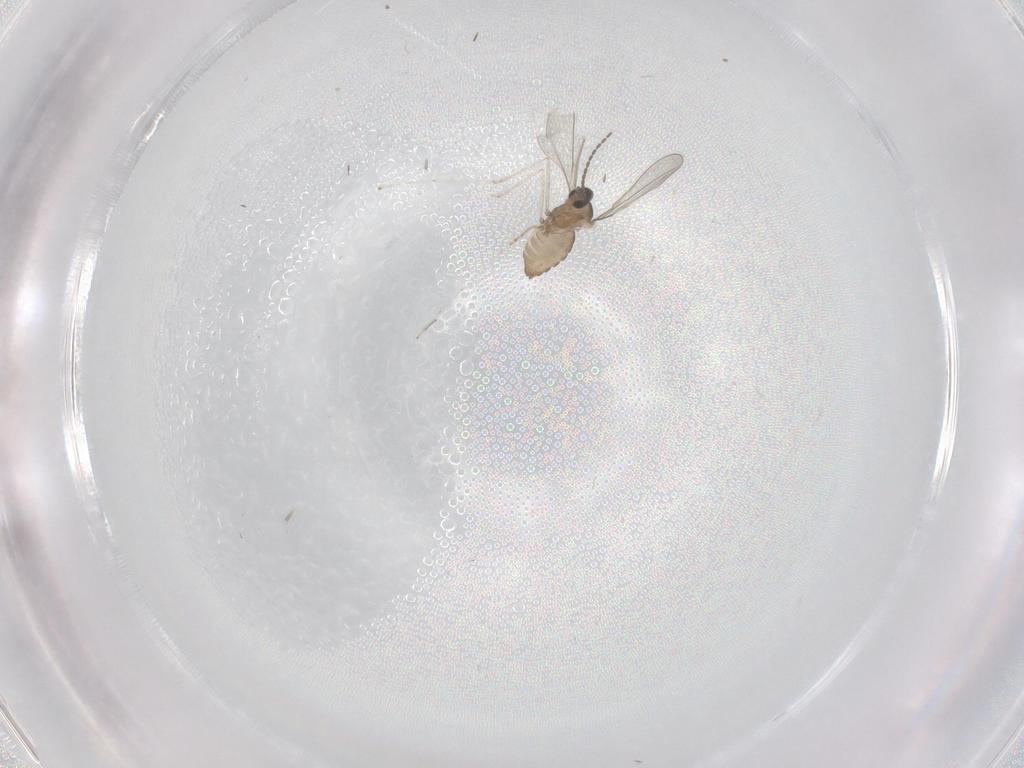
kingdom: Animalia
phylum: Arthropoda
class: Insecta
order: Diptera
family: Cecidomyiidae
